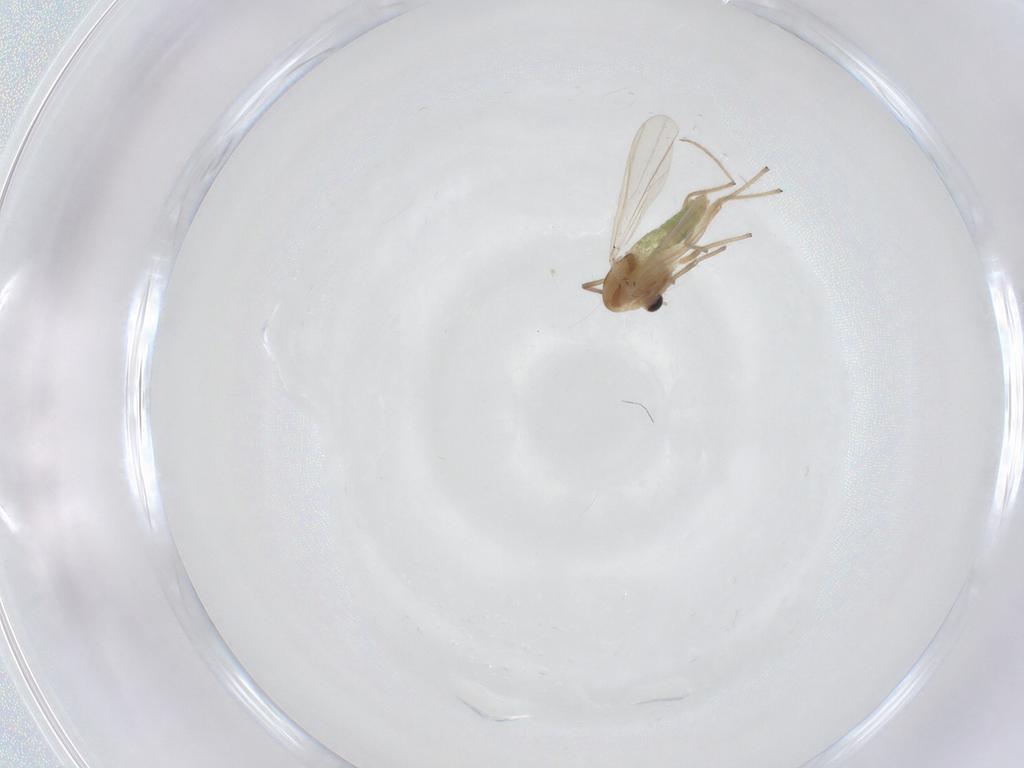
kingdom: Animalia
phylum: Arthropoda
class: Insecta
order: Diptera
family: Chironomidae
